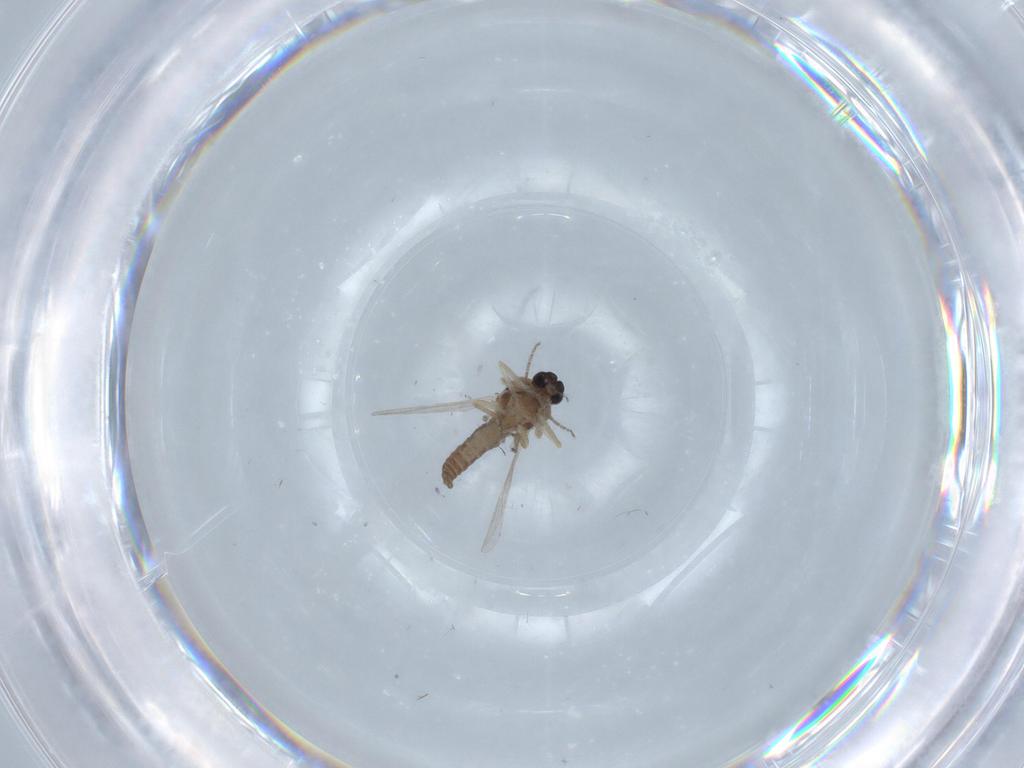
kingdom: Animalia
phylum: Arthropoda
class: Insecta
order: Diptera
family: Ceratopogonidae
